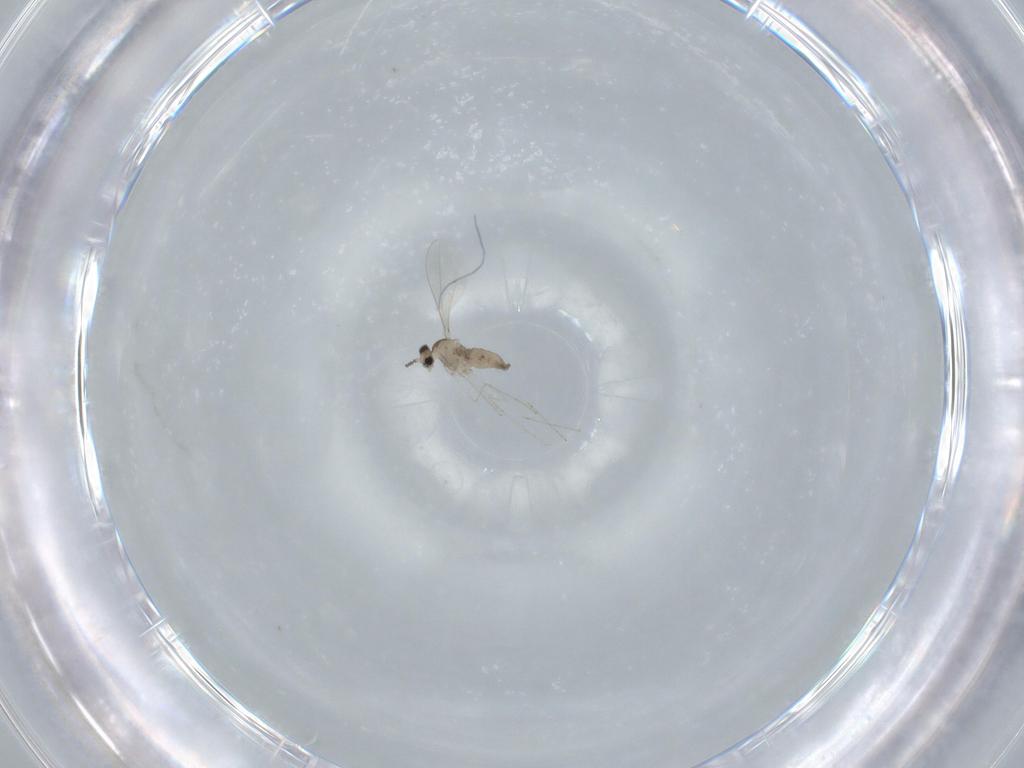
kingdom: Animalia
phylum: Arthropoda
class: Insecta
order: Diptera
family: Cecidomyiidae
